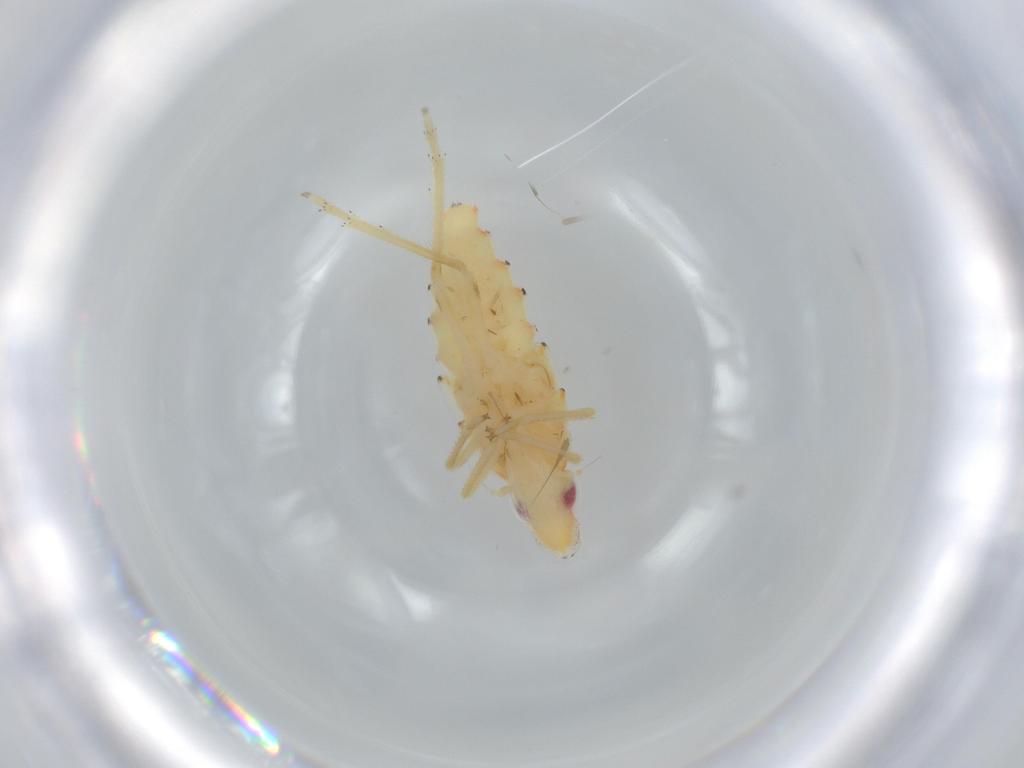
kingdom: Animalia
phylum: Arthropoda
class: Insecta
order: Hemiptera
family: Tropiduchidae
